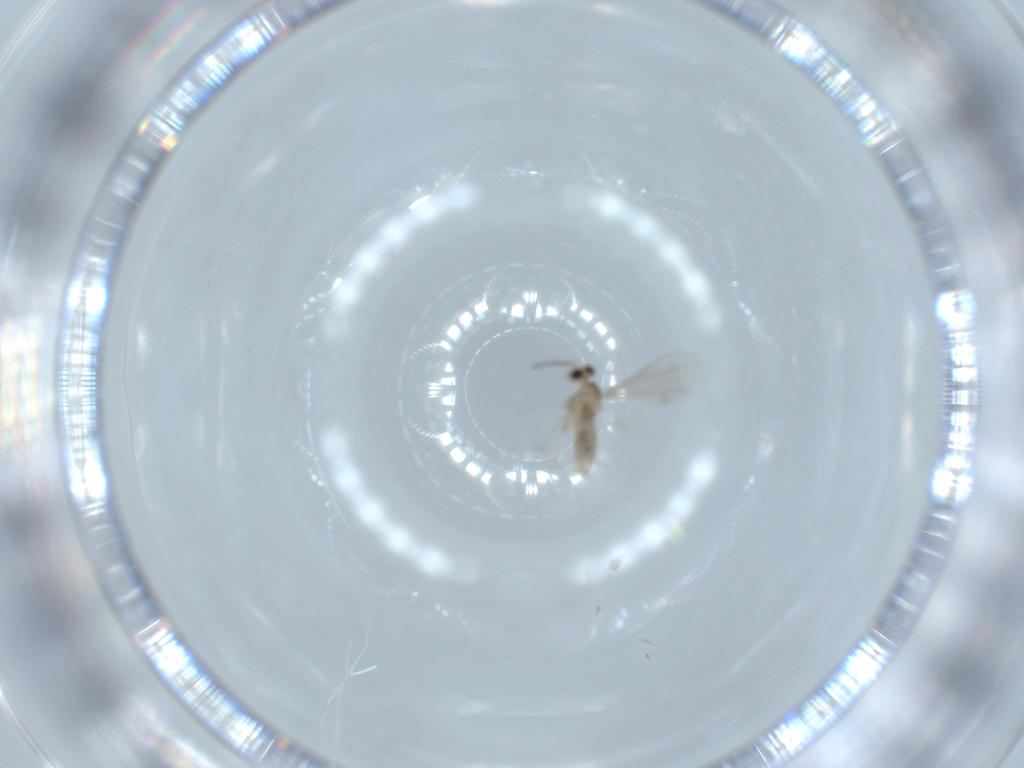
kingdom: Animalia
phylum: Arthropoda
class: Insecta
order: Diptera
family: Cecidomyiidae
